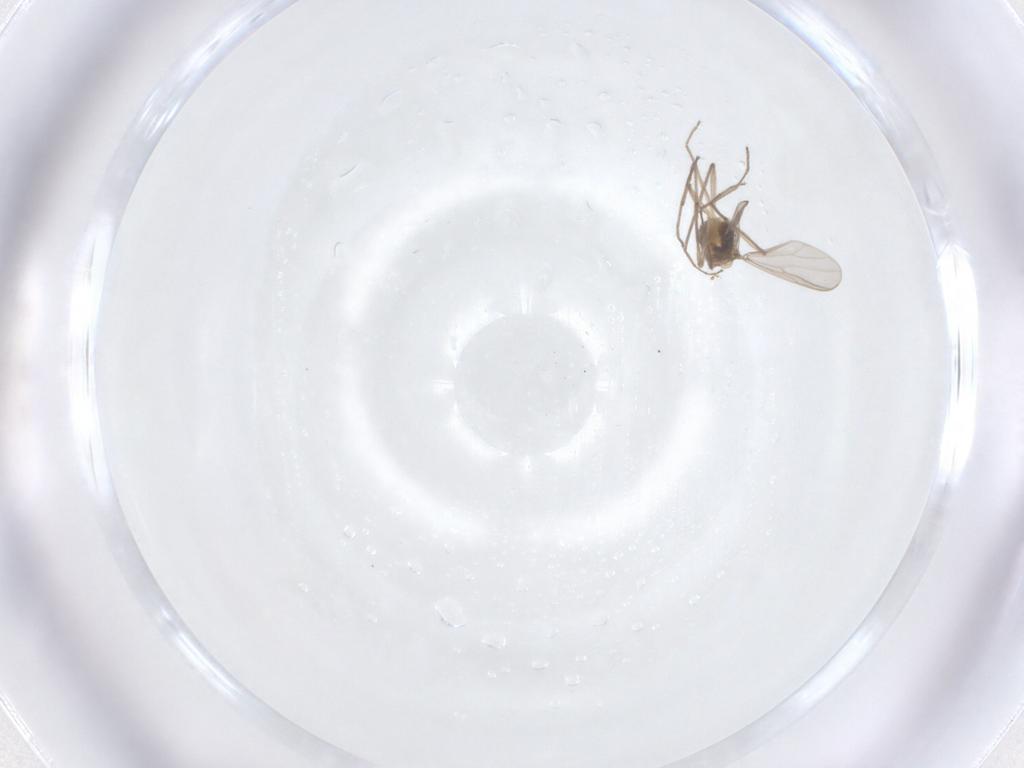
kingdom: Animalia
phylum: Arthropoda
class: Insecta
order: Diptera
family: Chironomidae
